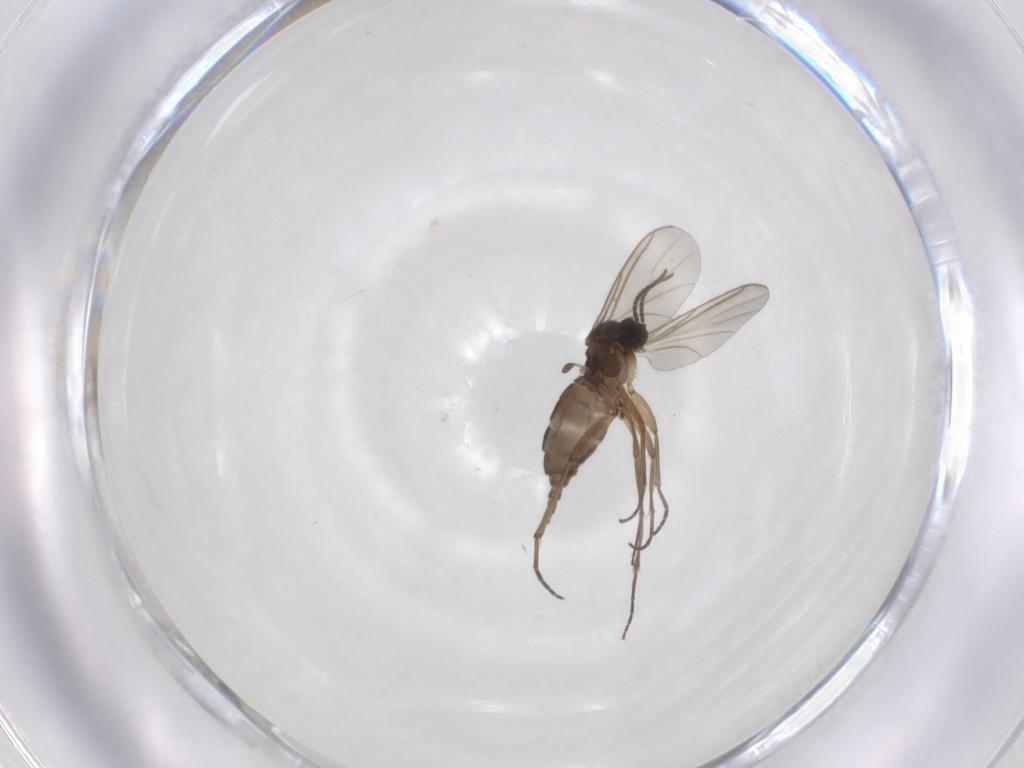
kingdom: Animalia
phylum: Arthropoda
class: Insecta
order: Diptera
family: Sciaridae
